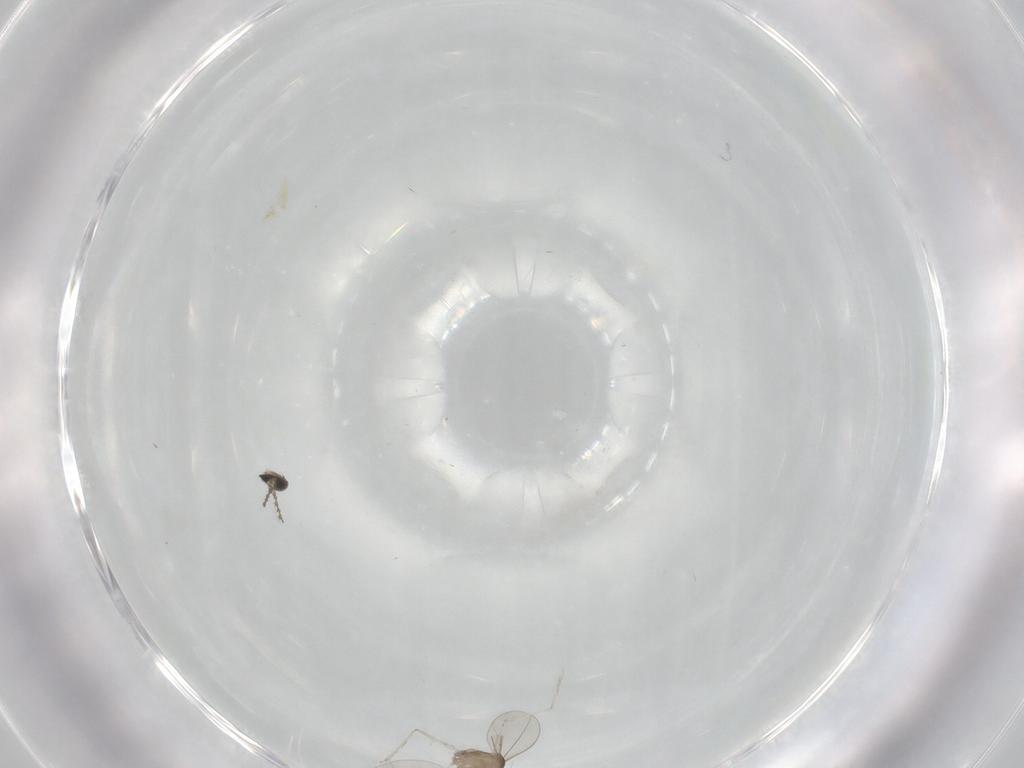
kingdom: Animalia
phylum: Arthropoda
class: Insecta
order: Diptera
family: Cecidomyiidae
